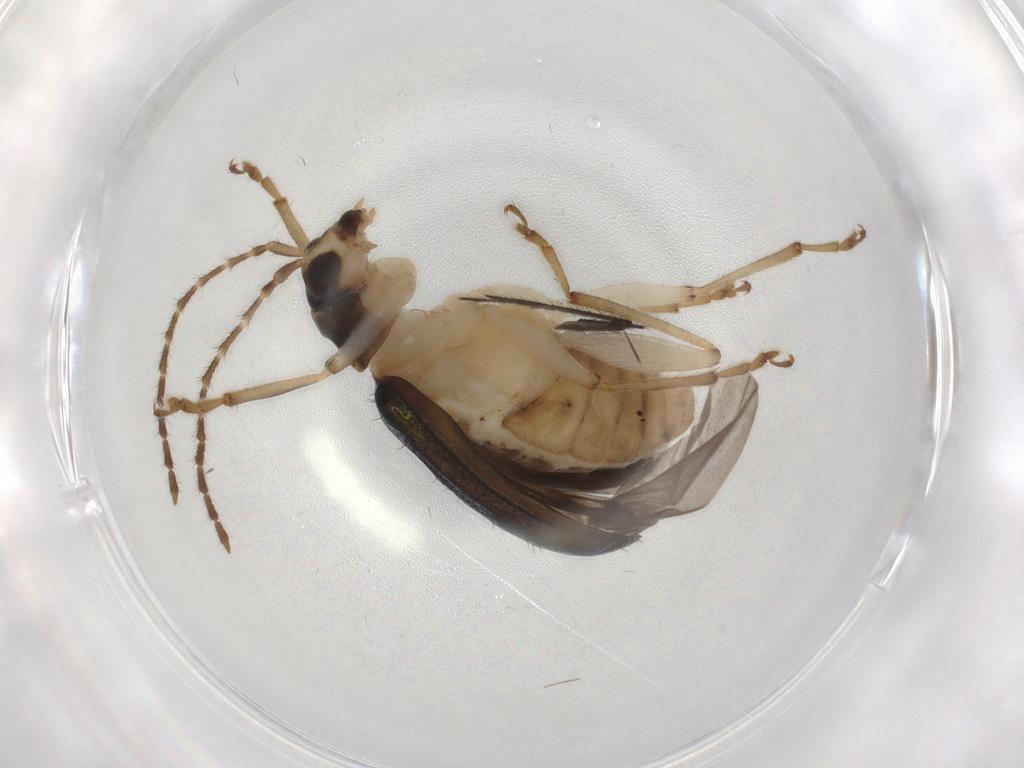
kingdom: Animalia
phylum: Arthropoda
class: Insecta
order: Coleoptera
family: Chrysomelidae
